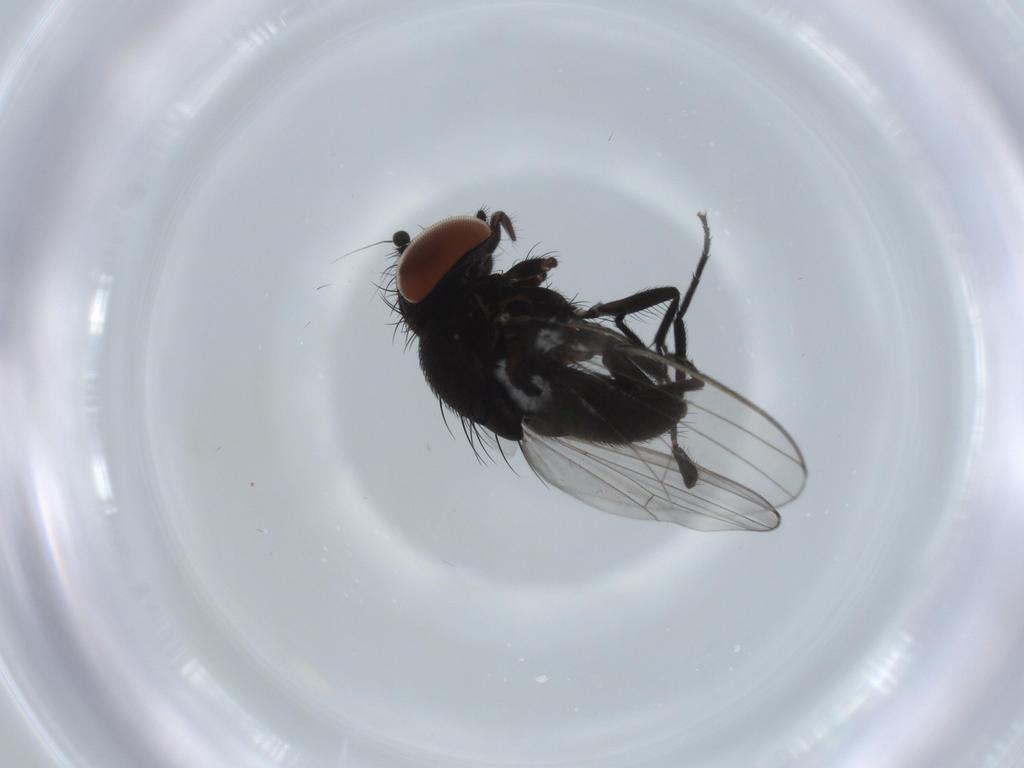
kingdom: Animalia
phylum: Arthropoda
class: Insecta
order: Diptera
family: Milichiidae
